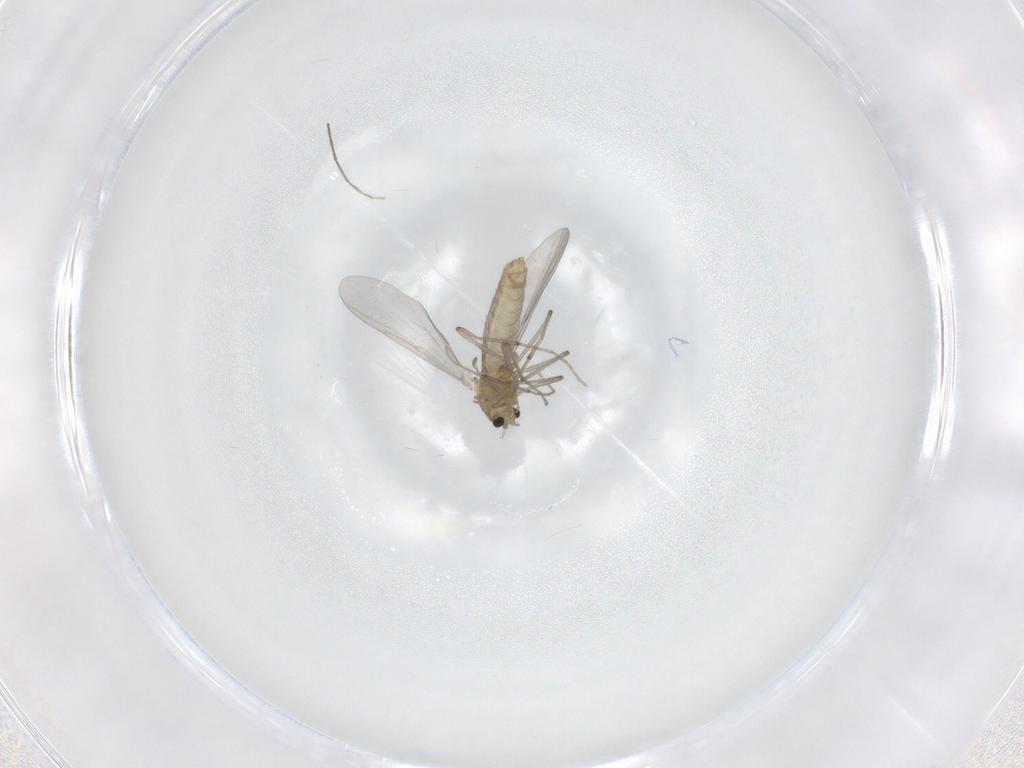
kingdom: Animalia
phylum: Arthropoda
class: Insecta
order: Diptera
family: Chironomidae
